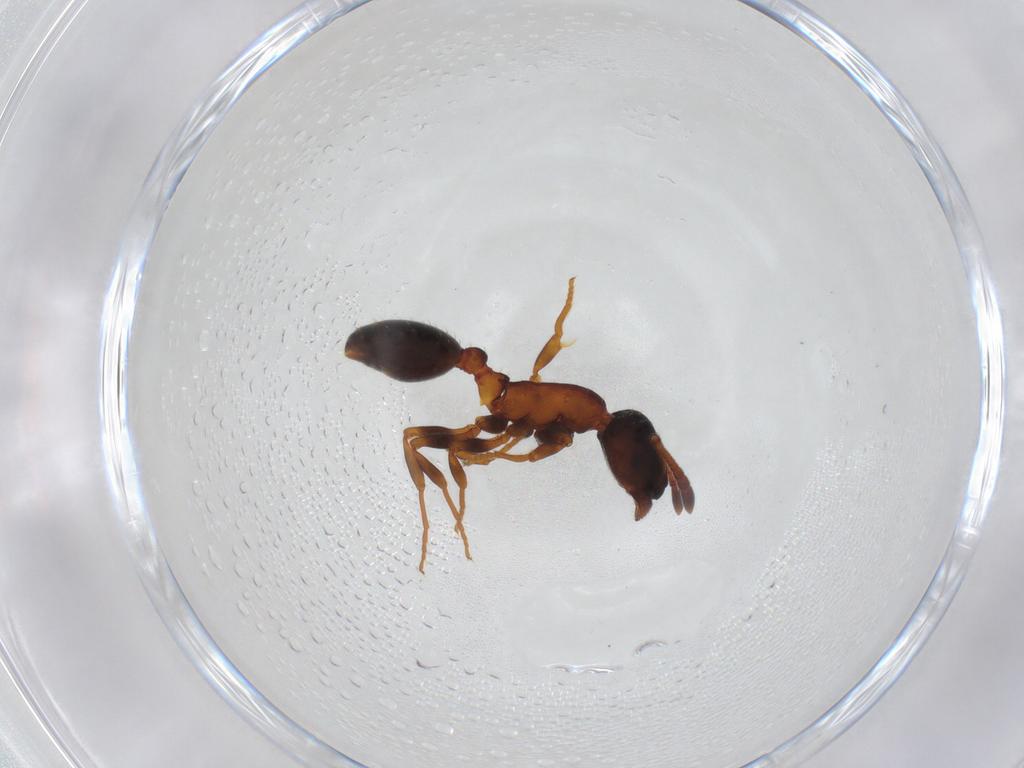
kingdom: Animalia
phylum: Arthropoda
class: Insecta
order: Hymenoptera
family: Formicidae
